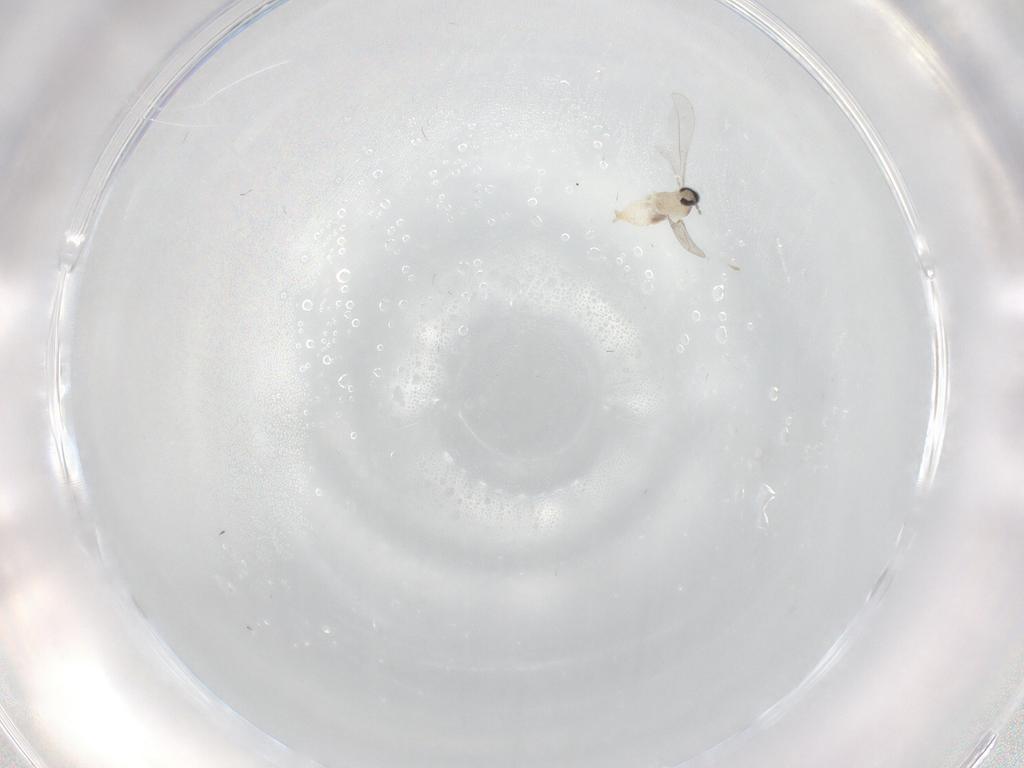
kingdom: Animalia
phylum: Arthropoda
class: Insecta
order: Diptera
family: Cecidomyiidae
